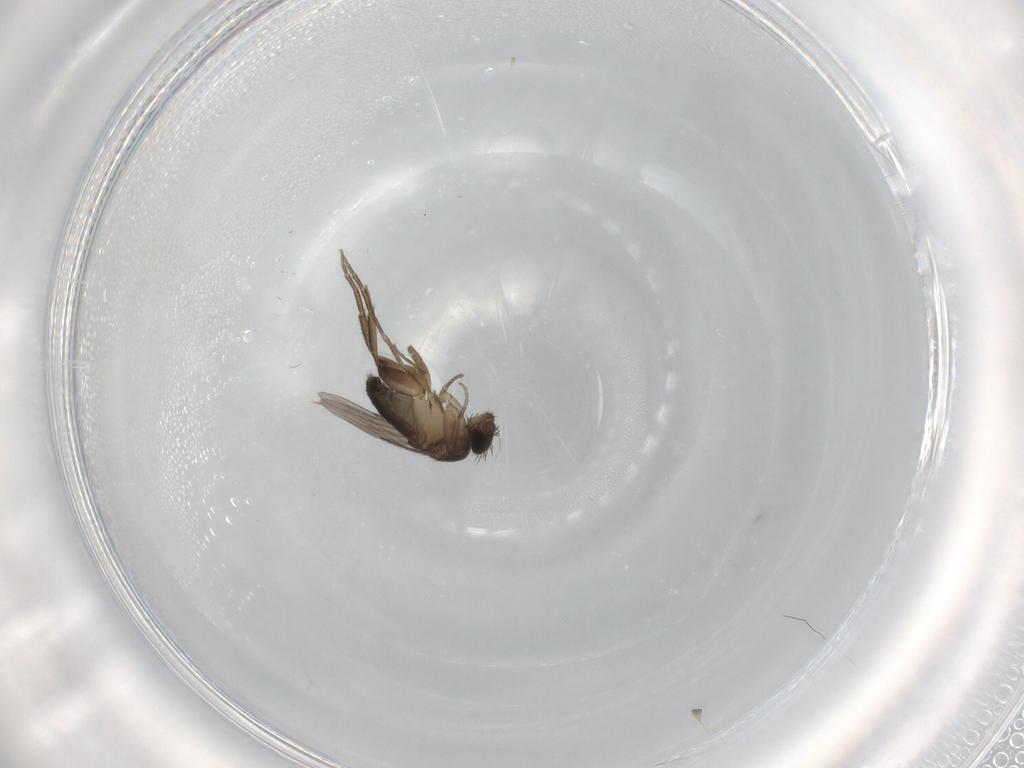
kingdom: Animalia
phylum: Arthropoda
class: Insecta
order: Diptera
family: Phoridae
